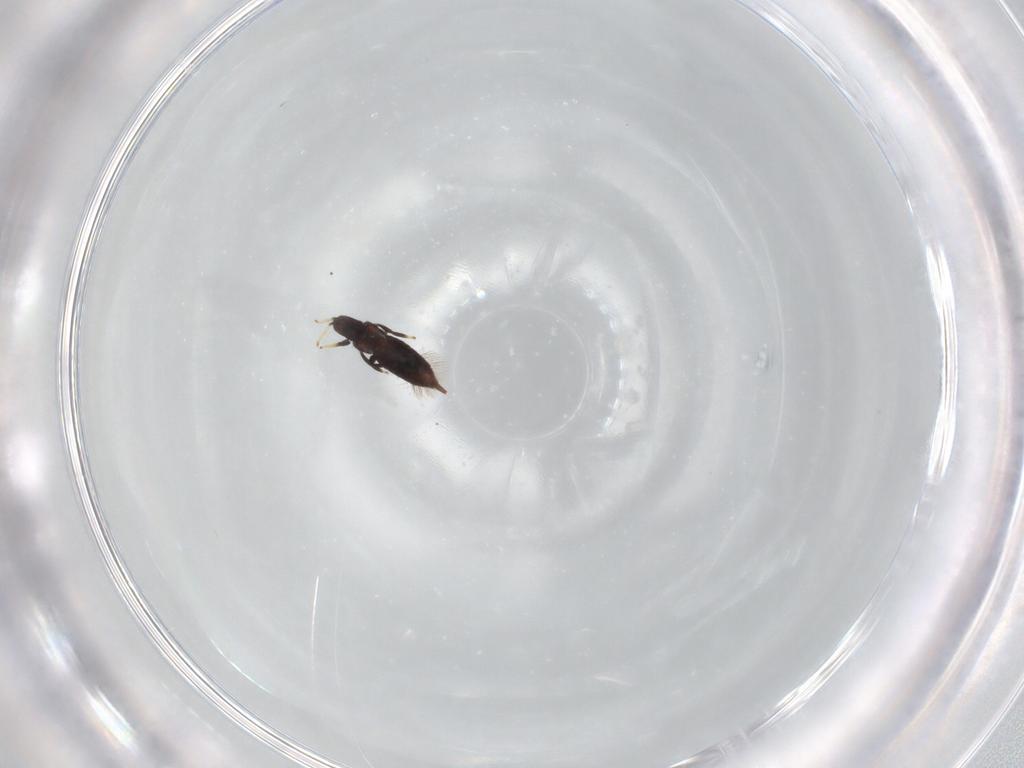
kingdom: Animalia
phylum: Arthropoda
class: Insecta
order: Thysanoptera
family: Phlaeothripidae
